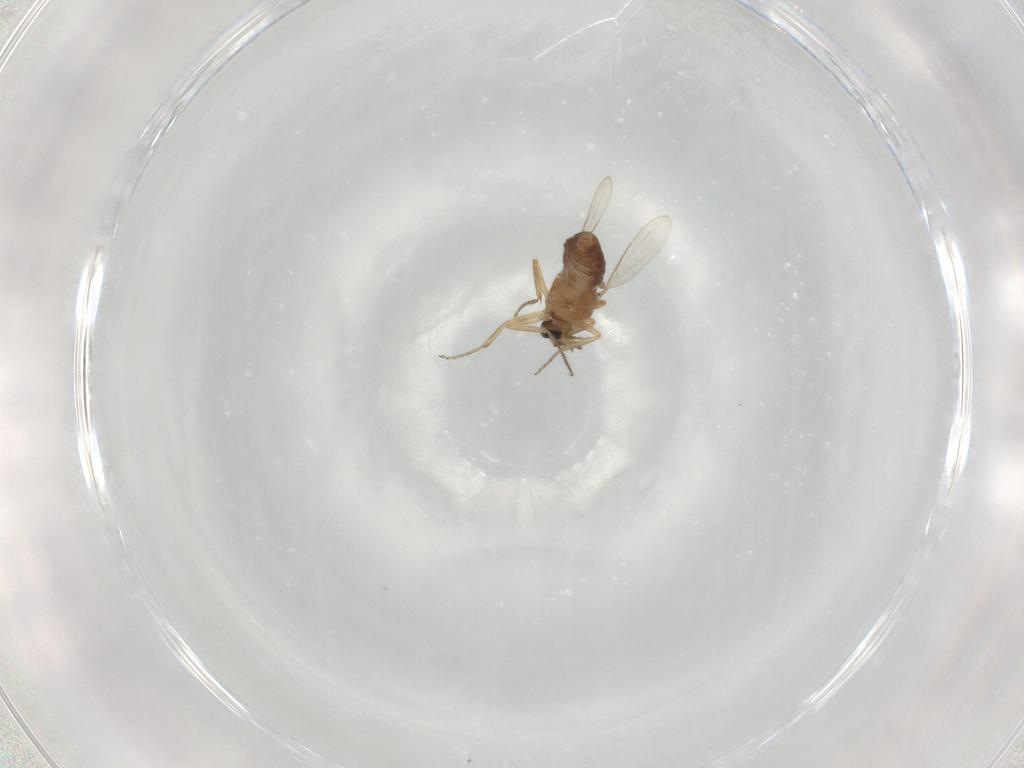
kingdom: Animalia
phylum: Arthropoda
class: Insecta
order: Diptera
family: Ceratopogonidae
